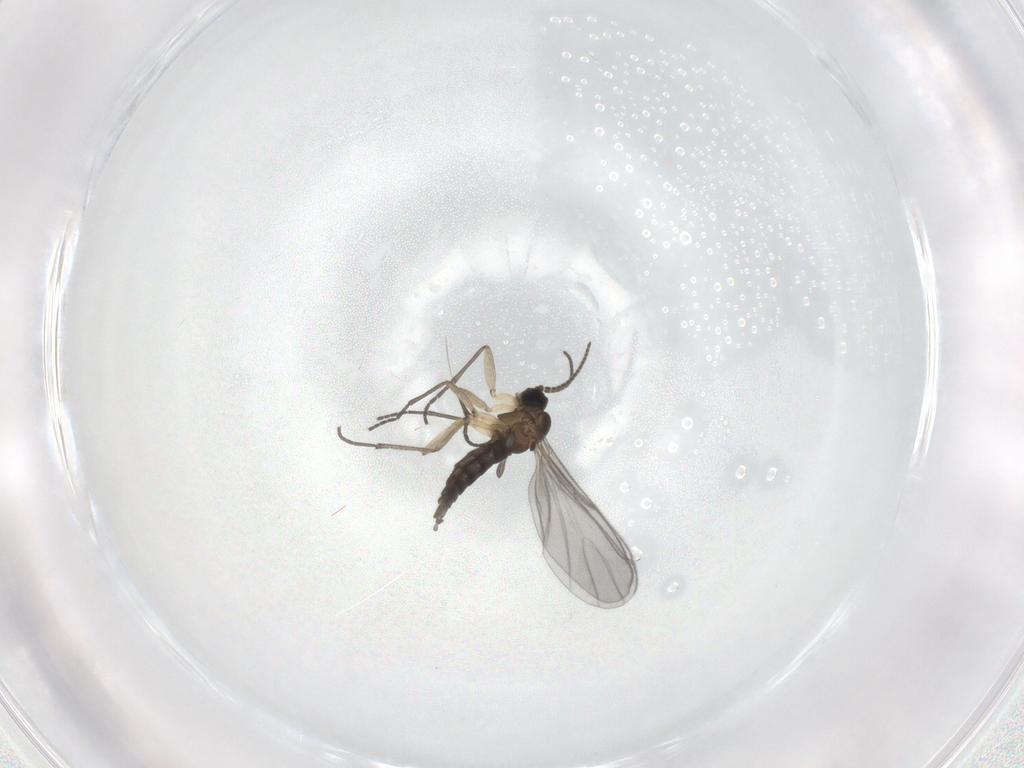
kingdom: Animalia
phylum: Arthropoda
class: Insecta
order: Diptera
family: Sciaridae
